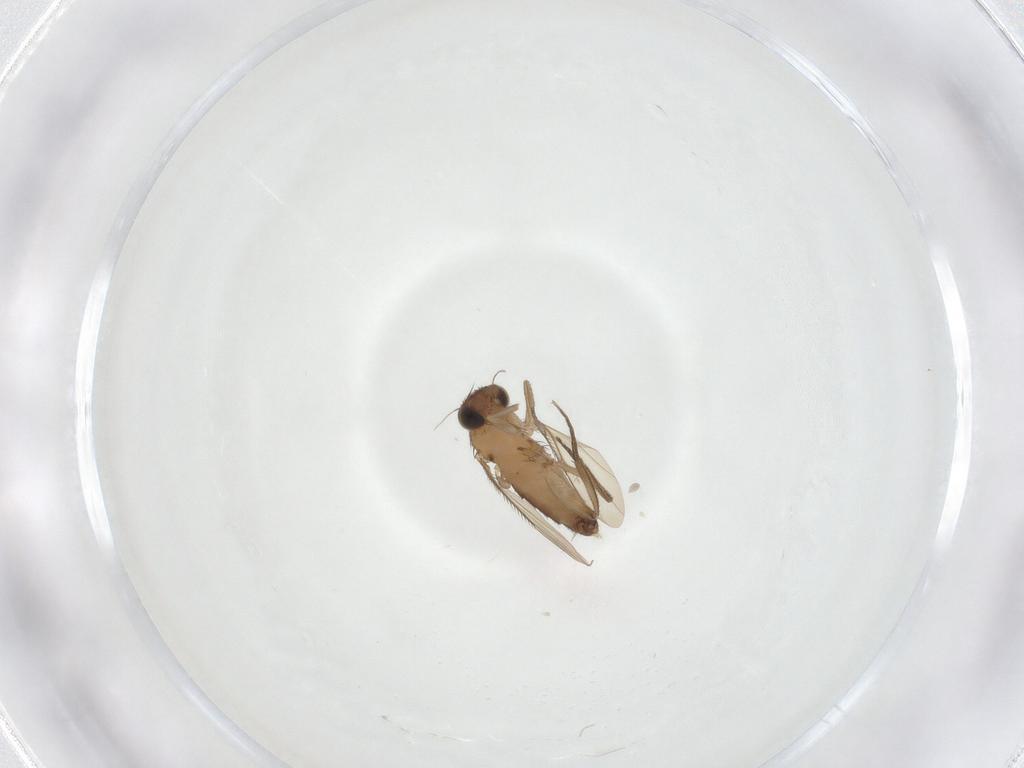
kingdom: Animalia
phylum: Arthropoda
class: Insecta
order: Diptera
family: Phoridae
